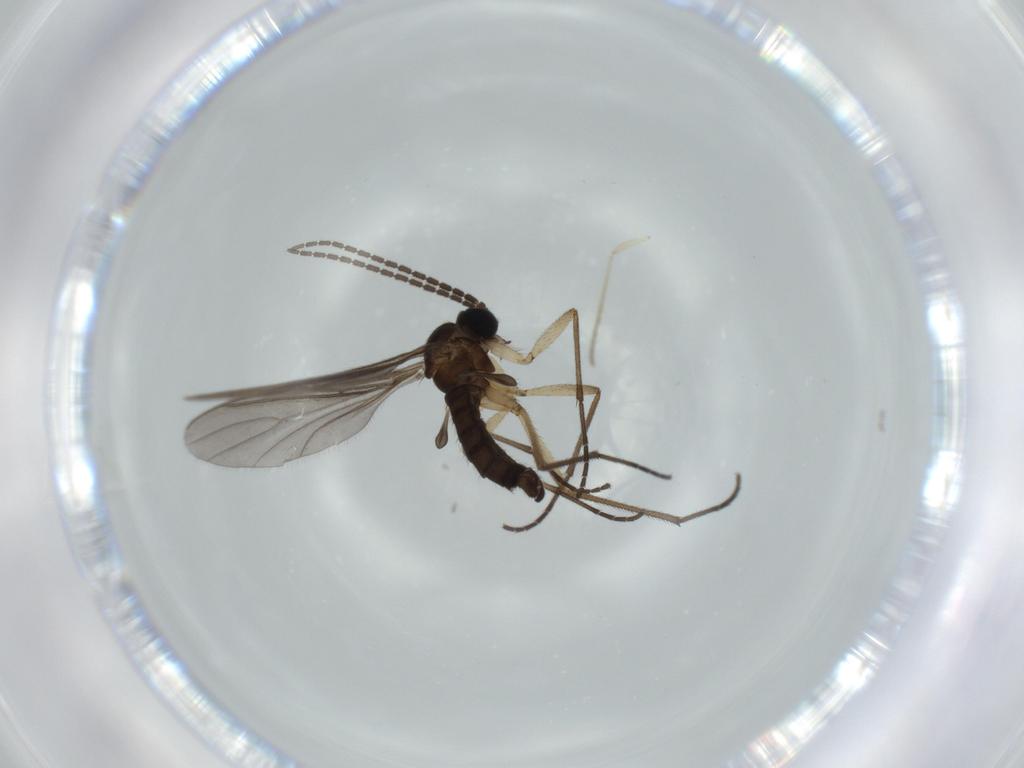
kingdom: Animalia
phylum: Arthropoda
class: Insecta
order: Diptera
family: Sciaridae
